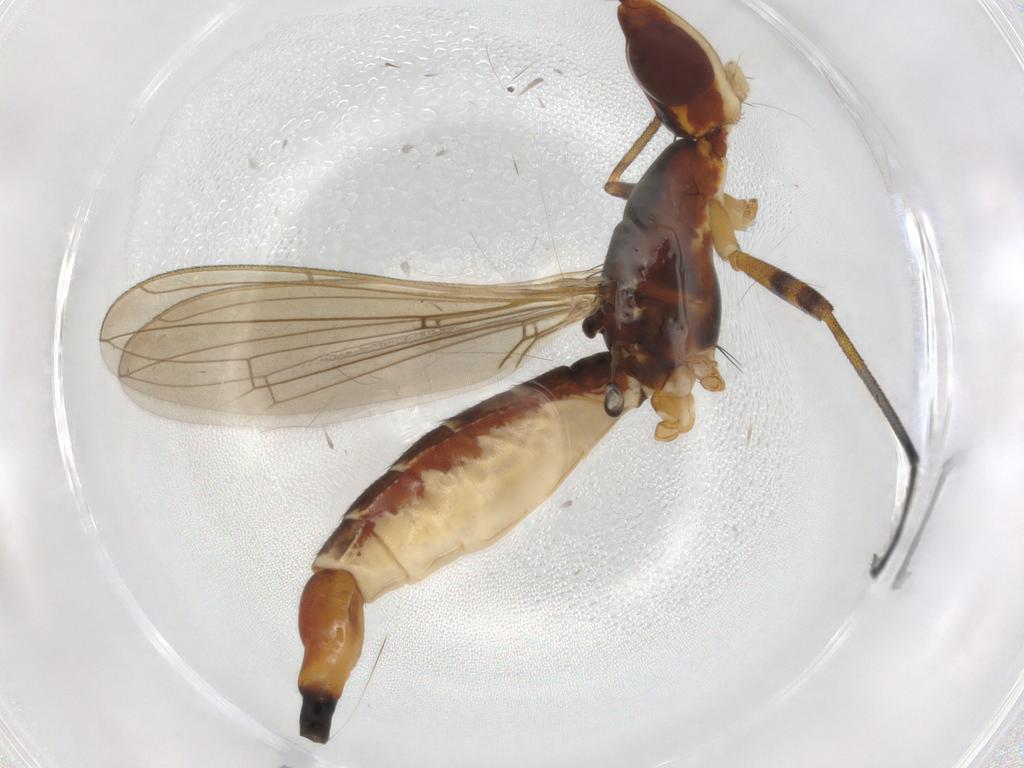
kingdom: Animalia
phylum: Arthropoda
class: Insecta
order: Diptera
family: Neriidae
